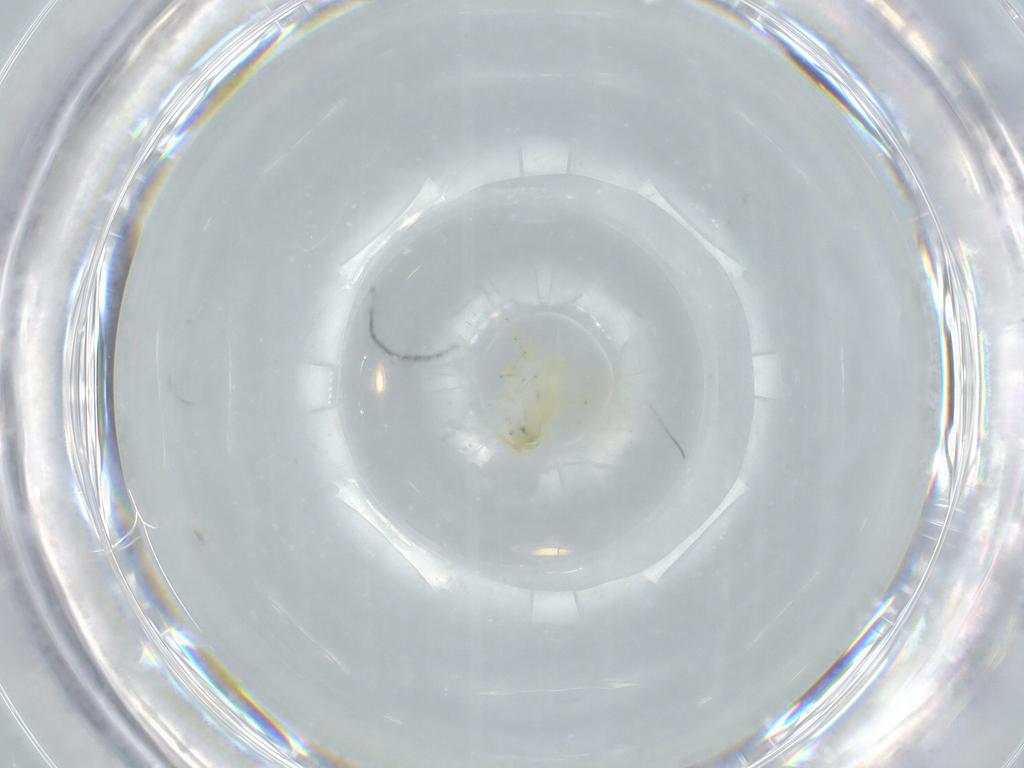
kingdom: Animalia
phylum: Arthropoda
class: Insecta
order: Hymenoptera
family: Aphelinidae
